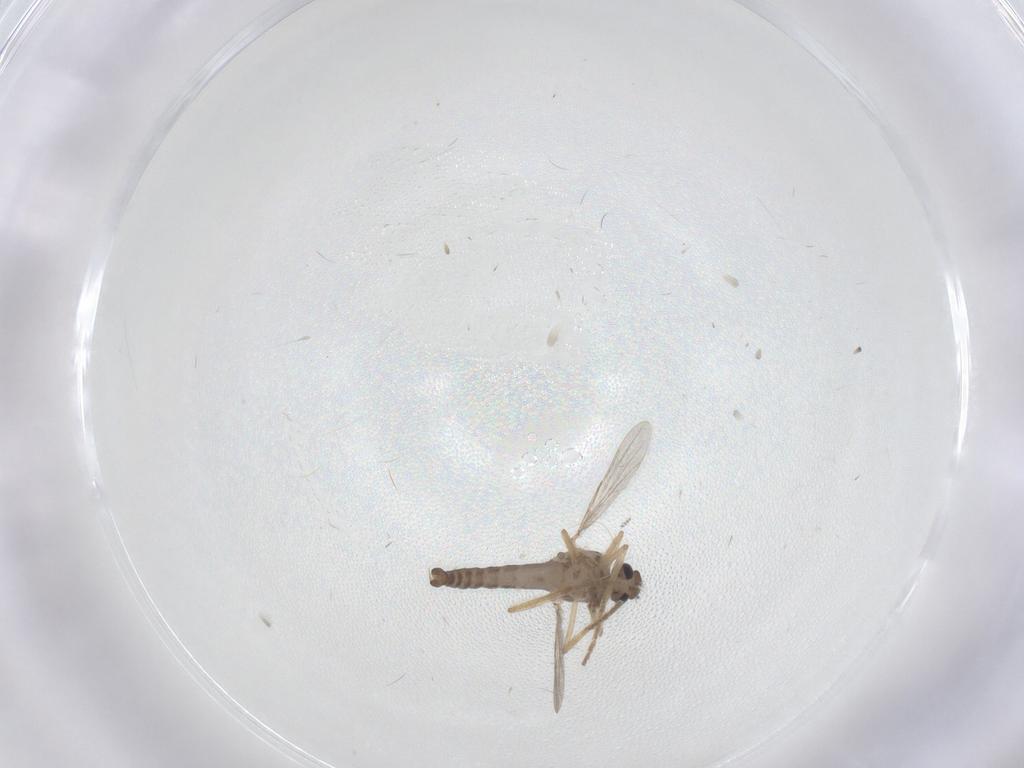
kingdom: Animalia
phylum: Arthropoda
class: Insecta
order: Diptera
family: Ceratopogonidae
